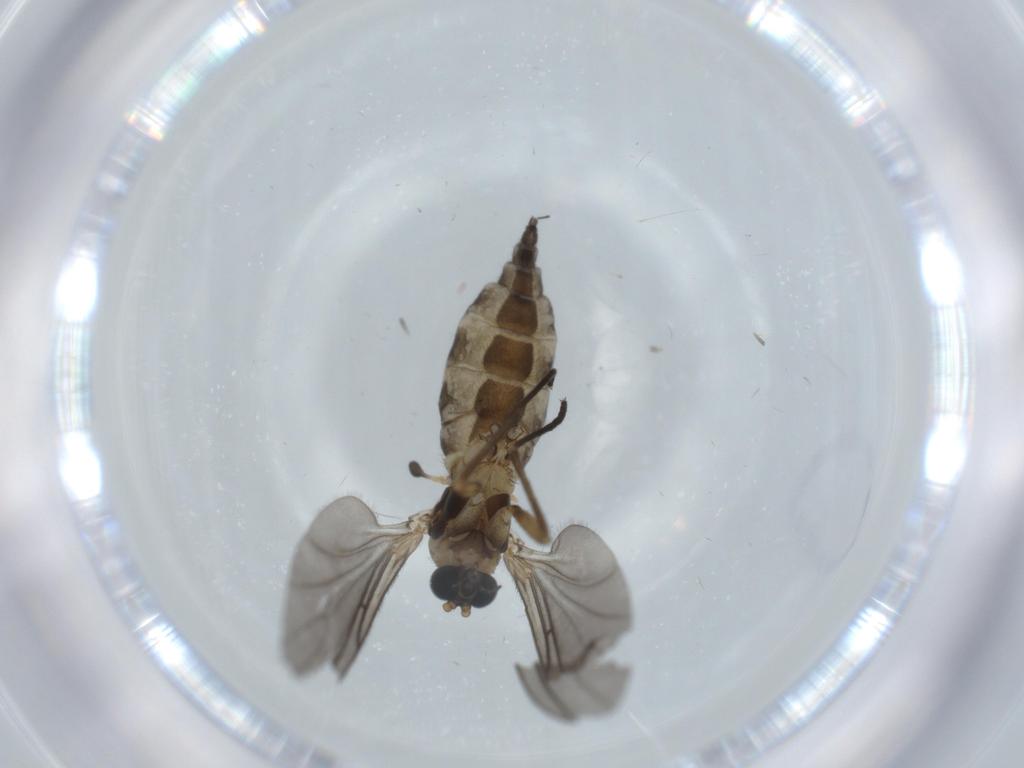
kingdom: Animalia
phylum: Arthropoda
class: Insecta
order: Diptera
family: Sciaridae
